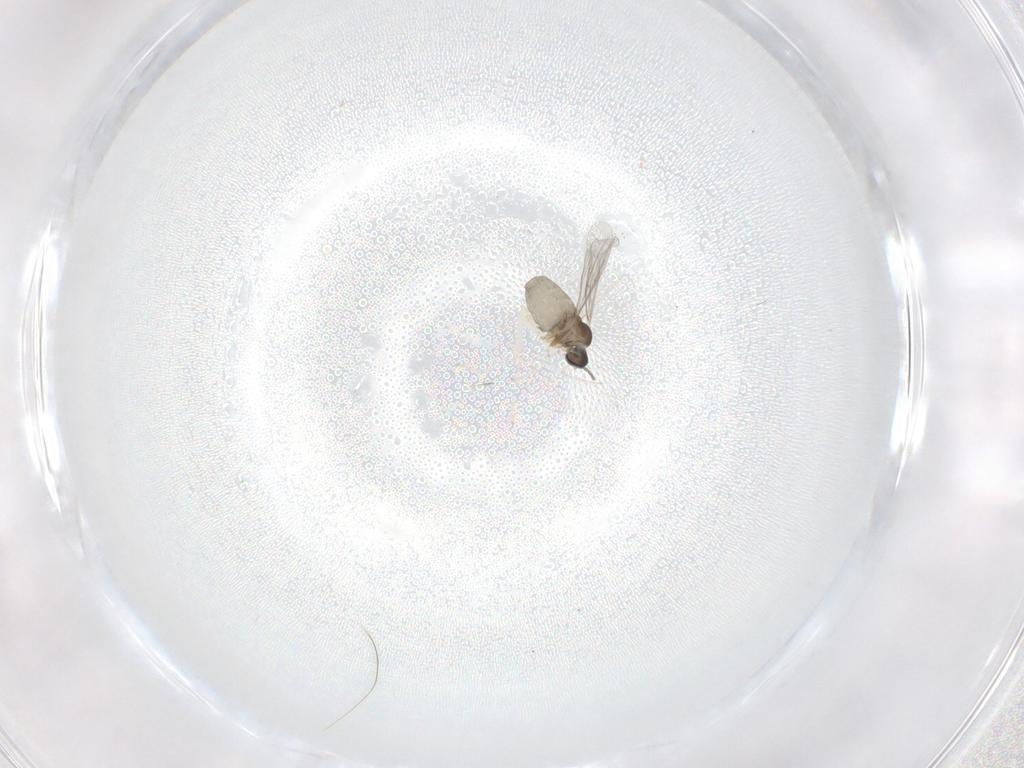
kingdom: Animalia
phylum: Arthropoda
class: Insecta
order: Diptera
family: Cecidomyiidae
